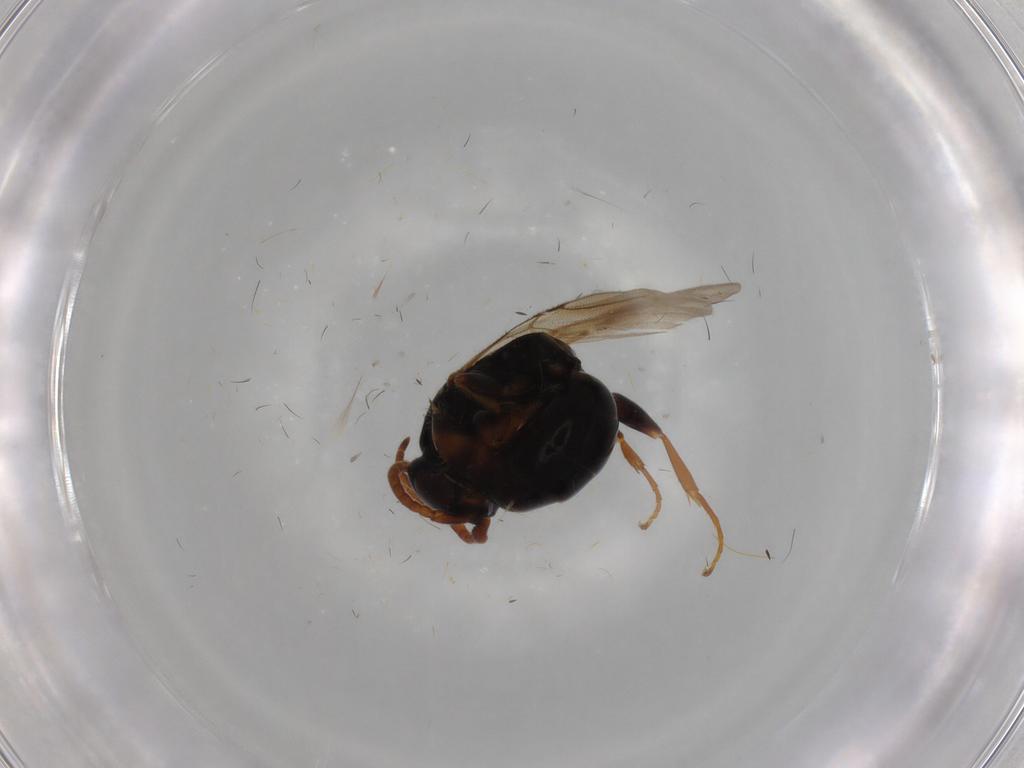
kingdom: Animalia
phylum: Arthropoda
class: Insecta
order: Hymenoptera
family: Bethylidae
